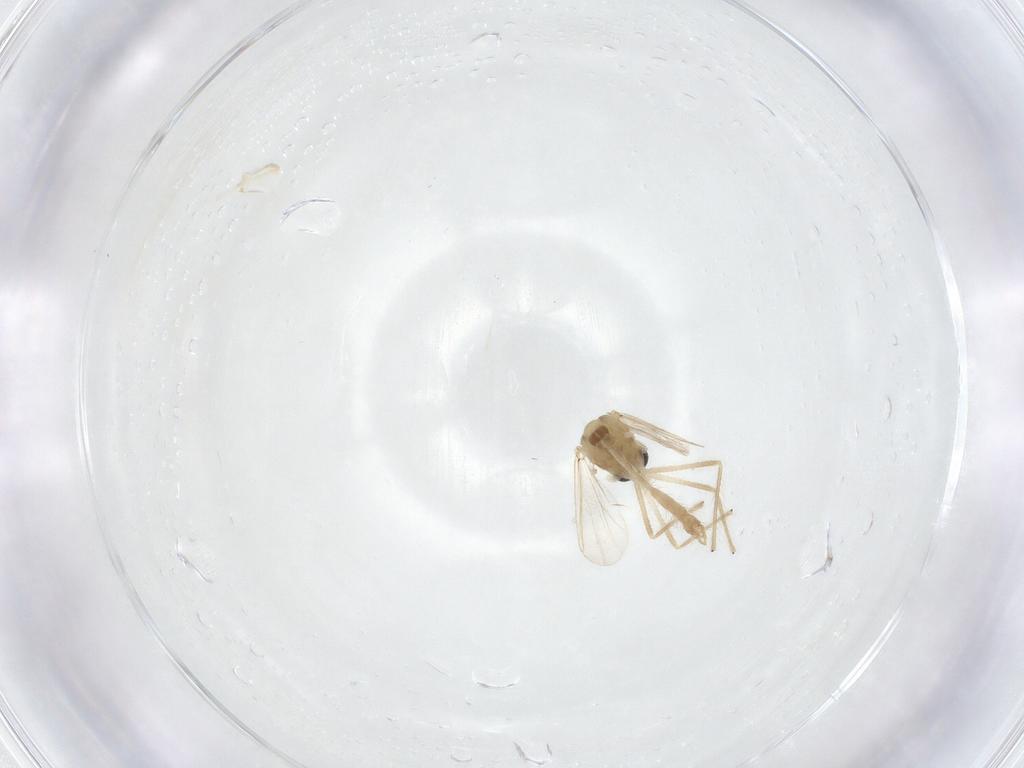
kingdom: Animalia
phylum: Arthropoda
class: Insecta
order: Diptera
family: Chironomidae
